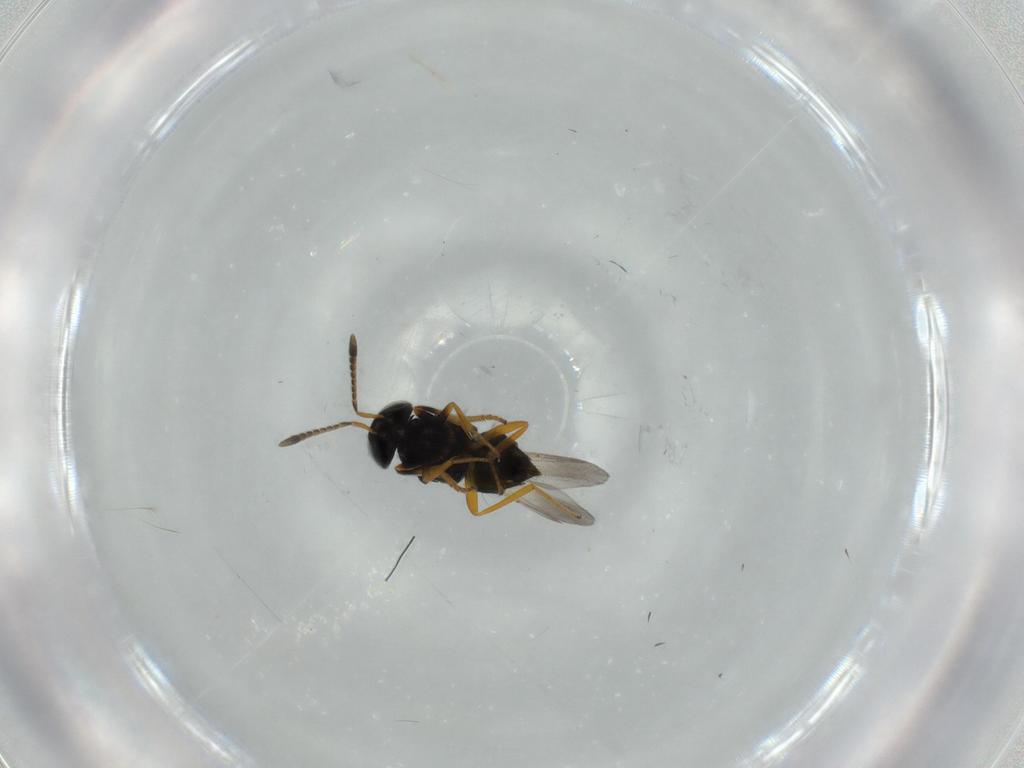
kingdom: Animalia
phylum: Arthropoda
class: Insecta
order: Hymenoptera
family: Encyrtidae
